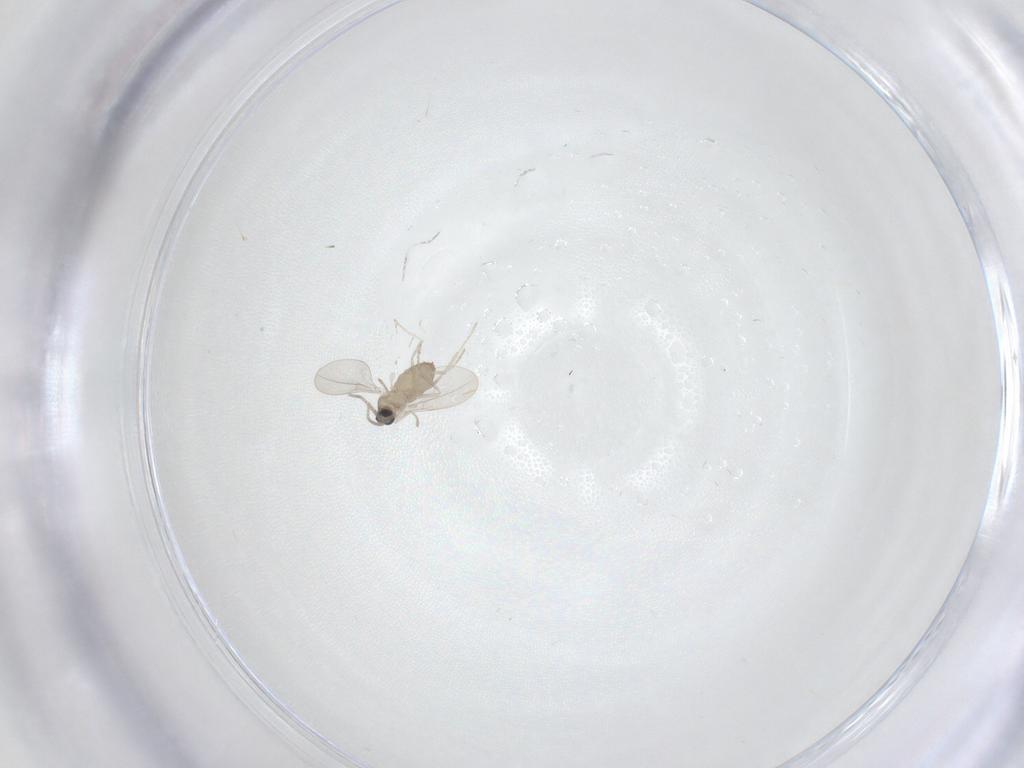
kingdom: Animalia
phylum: Arthropoda
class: Insecta
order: Diptera
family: Cecidomyiidae
